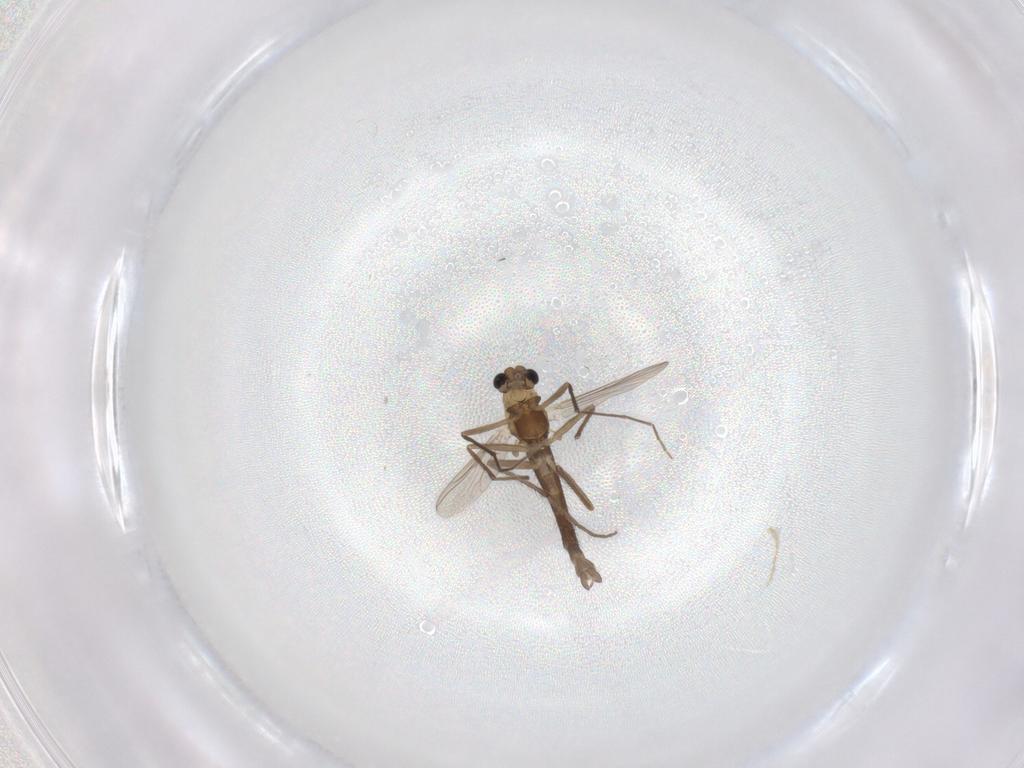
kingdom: Animalia
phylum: Arthropoda
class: Insecta
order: Diptera
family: Chironomidae
